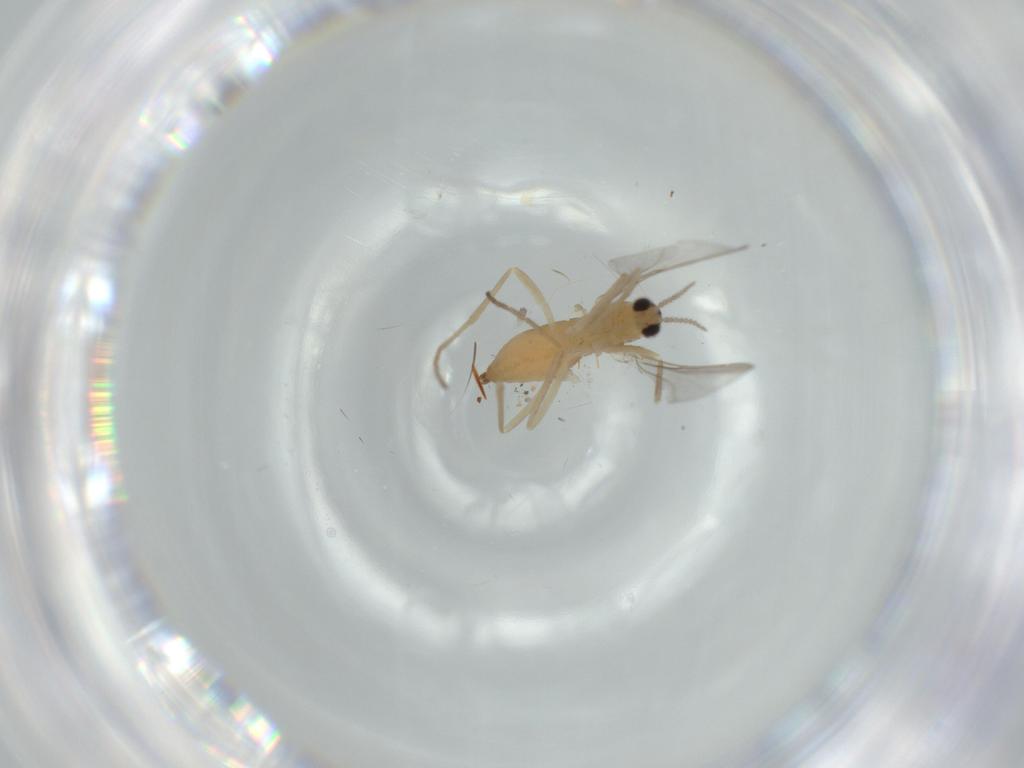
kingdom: Animalia
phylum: Arthropoda
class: Insecta
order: Diptera
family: Cecidomyiidae
